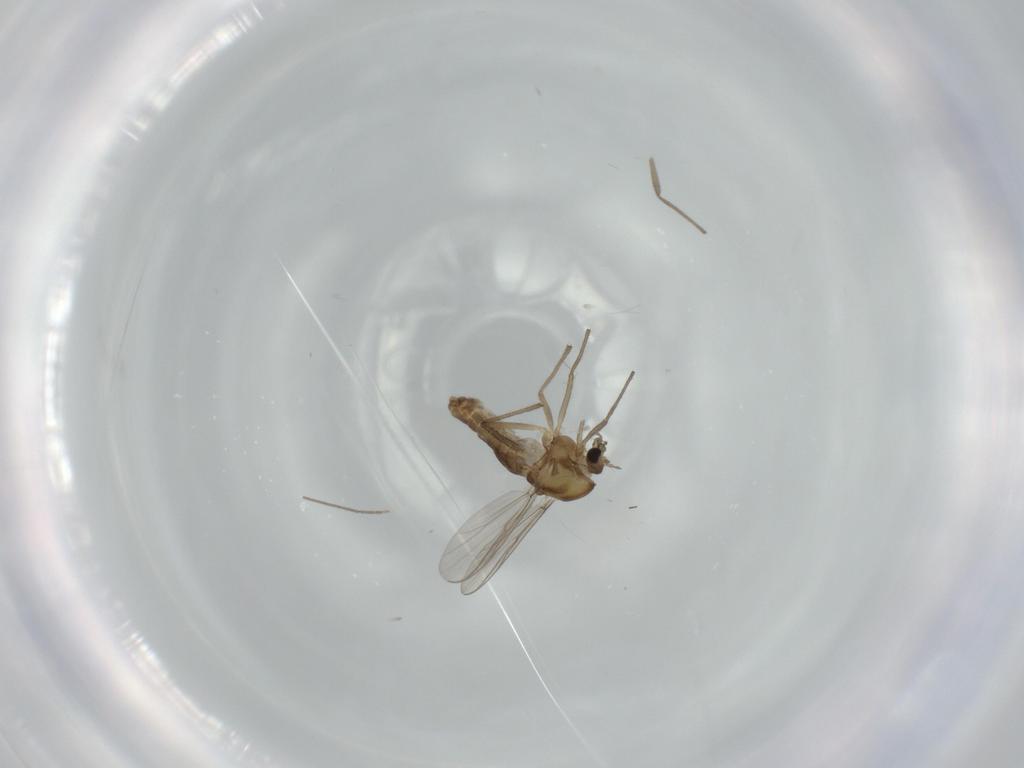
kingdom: Animalia
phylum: Arthropoda
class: Insecta
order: Diptera
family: Chironomidae
